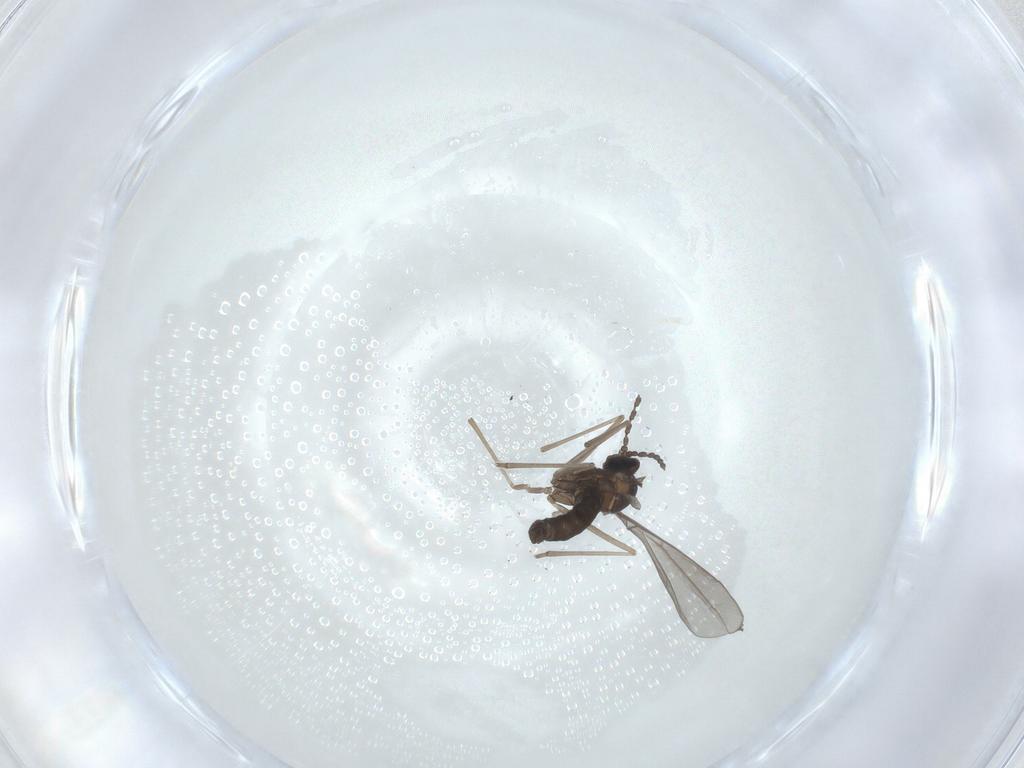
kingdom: Animalia
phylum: Arthropoda
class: Insecta
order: Diptera
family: Cecidomyiidae
